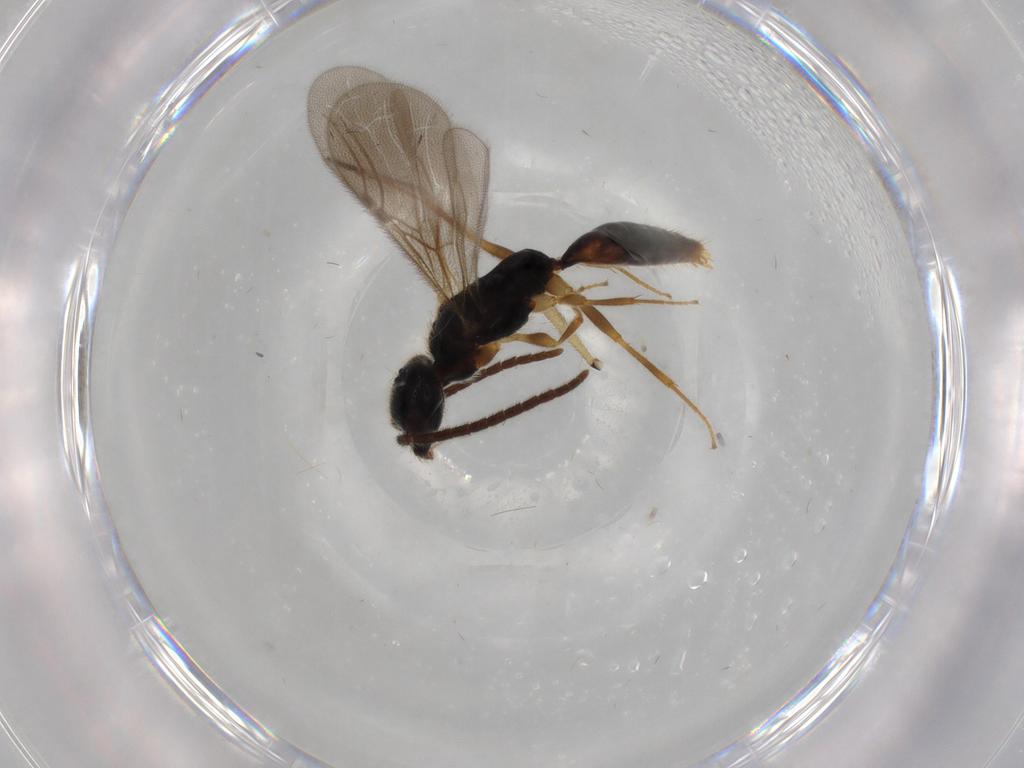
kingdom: Animalia
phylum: Arthropoda
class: Insecta
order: Hymenoptera
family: Bethylidae
